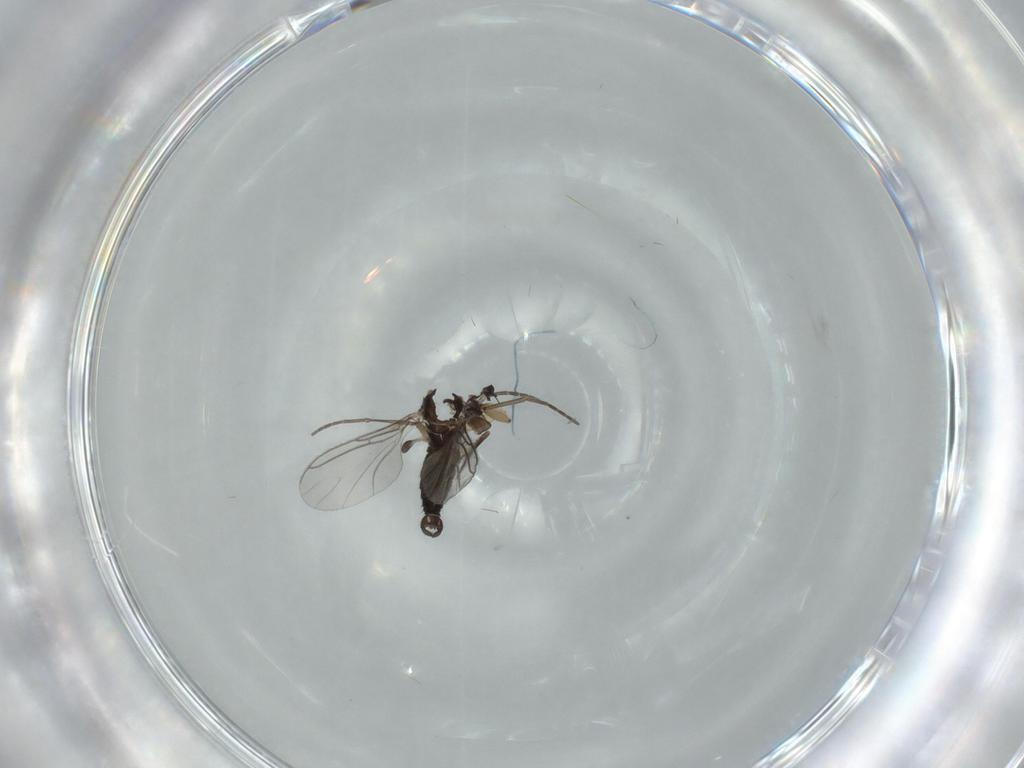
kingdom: Animalia
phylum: Arthropoda
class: Insecta
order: Diptera
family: Sciaridae
